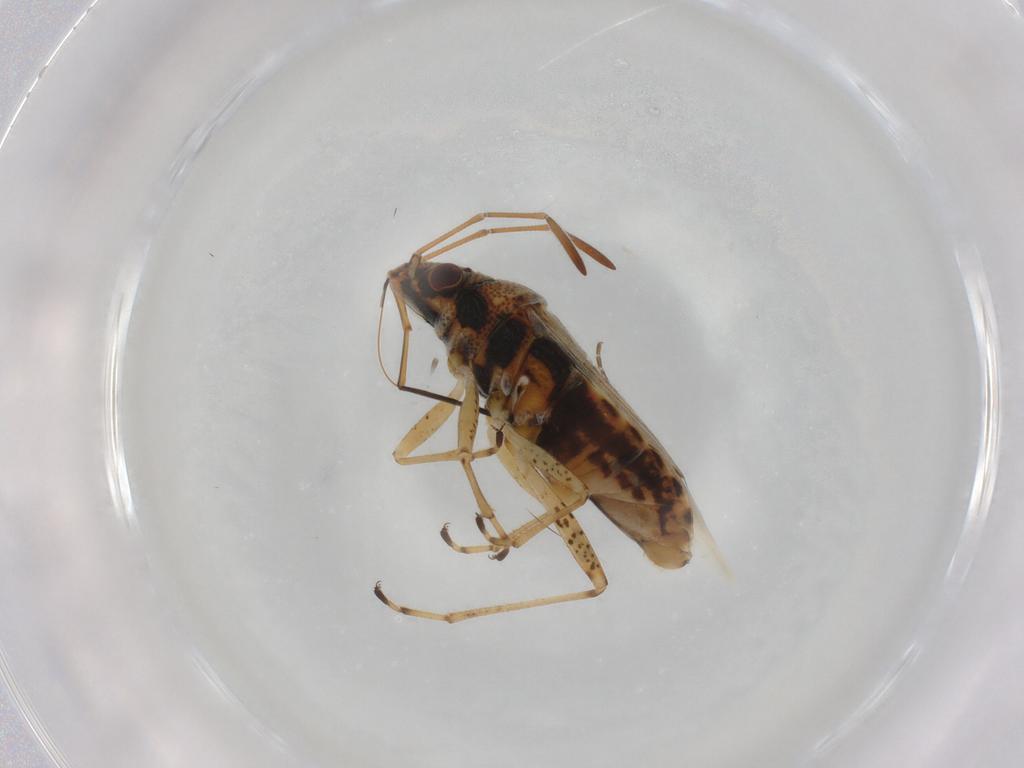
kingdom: Animalia
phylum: Arthropoda
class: Insecta
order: Hemiptera
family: Lygaeidae
